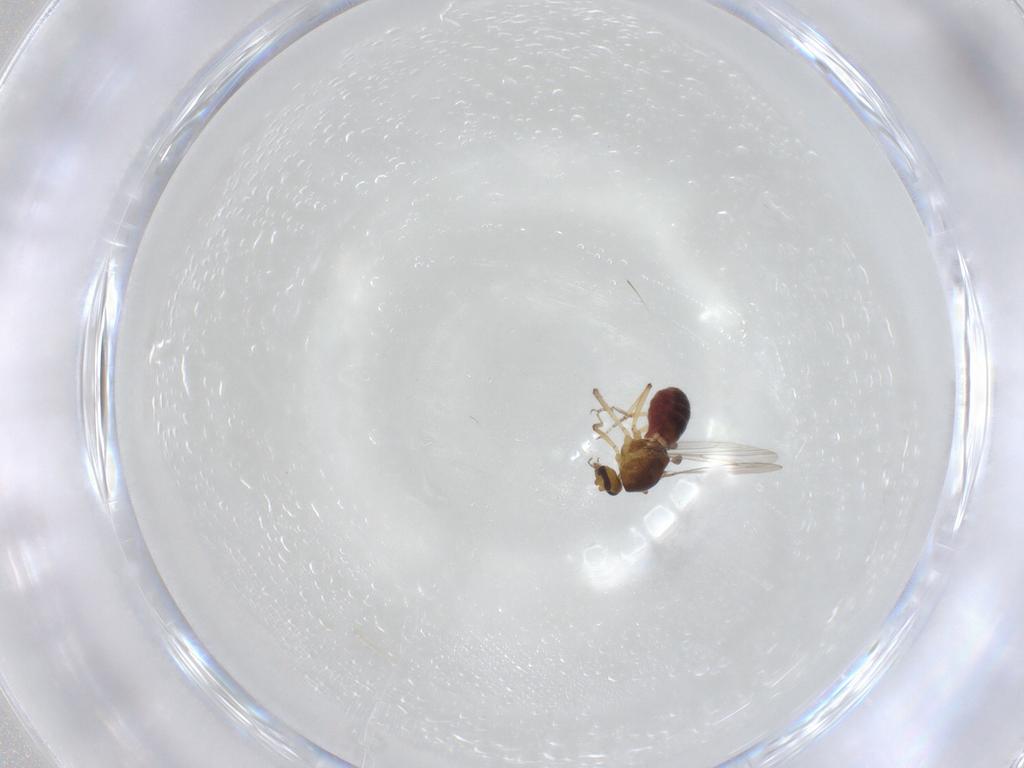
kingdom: Animalia
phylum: Arthropoda
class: Insecta
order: Diptera
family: Ceratopogonidae
